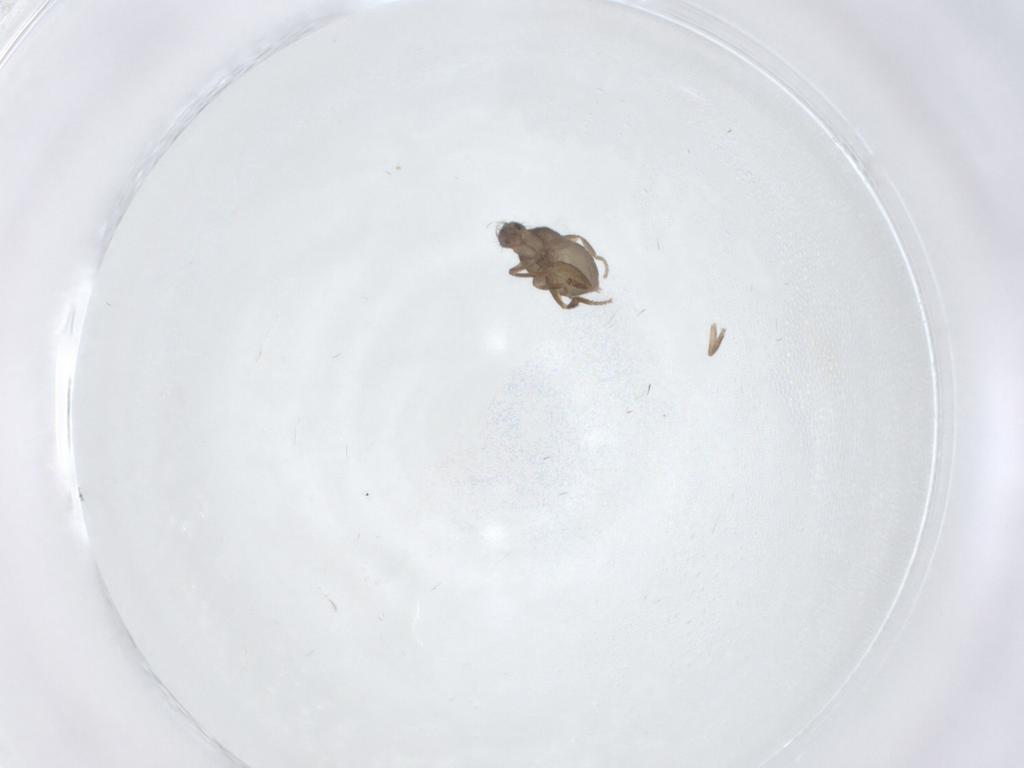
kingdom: Animalia
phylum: Arthropoda
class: Insecta
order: Diptera
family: Phoridae
